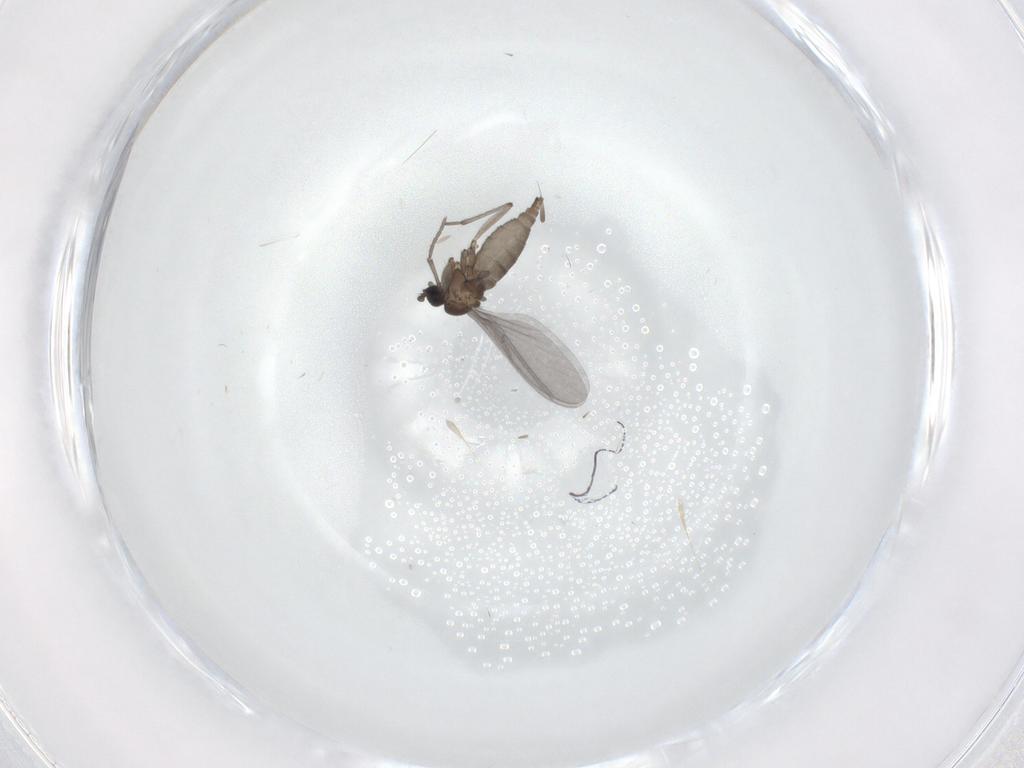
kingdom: Animalia
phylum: Arthropoda
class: Insecta
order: Diptera
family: Sciaridae
